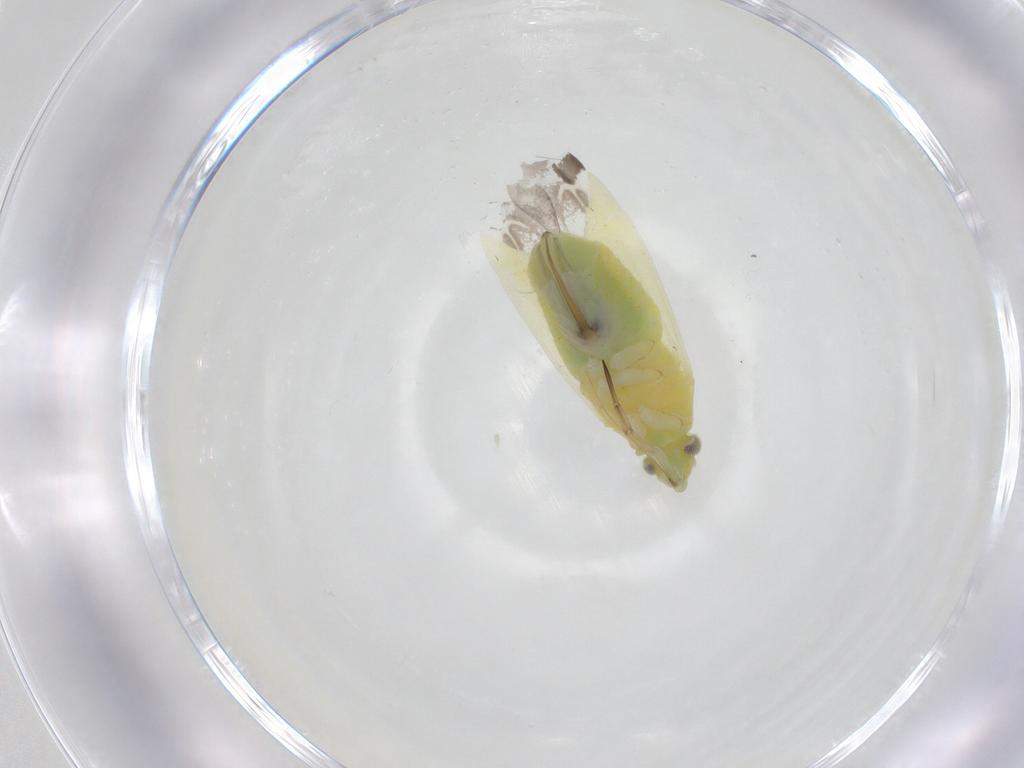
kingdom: Animalia
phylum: Arthropoda
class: Insecta
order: Hemiptera
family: Miridae
